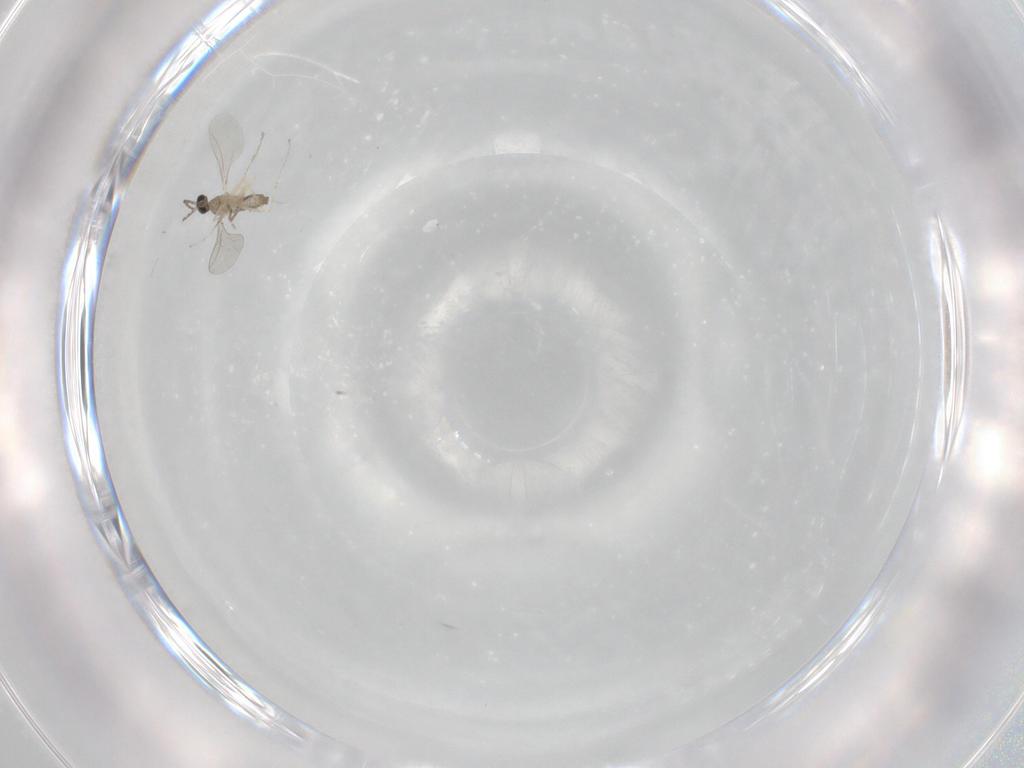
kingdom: Animalia
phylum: Arthropoda
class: Insecta
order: Diptera
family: Cecidomyiidae
